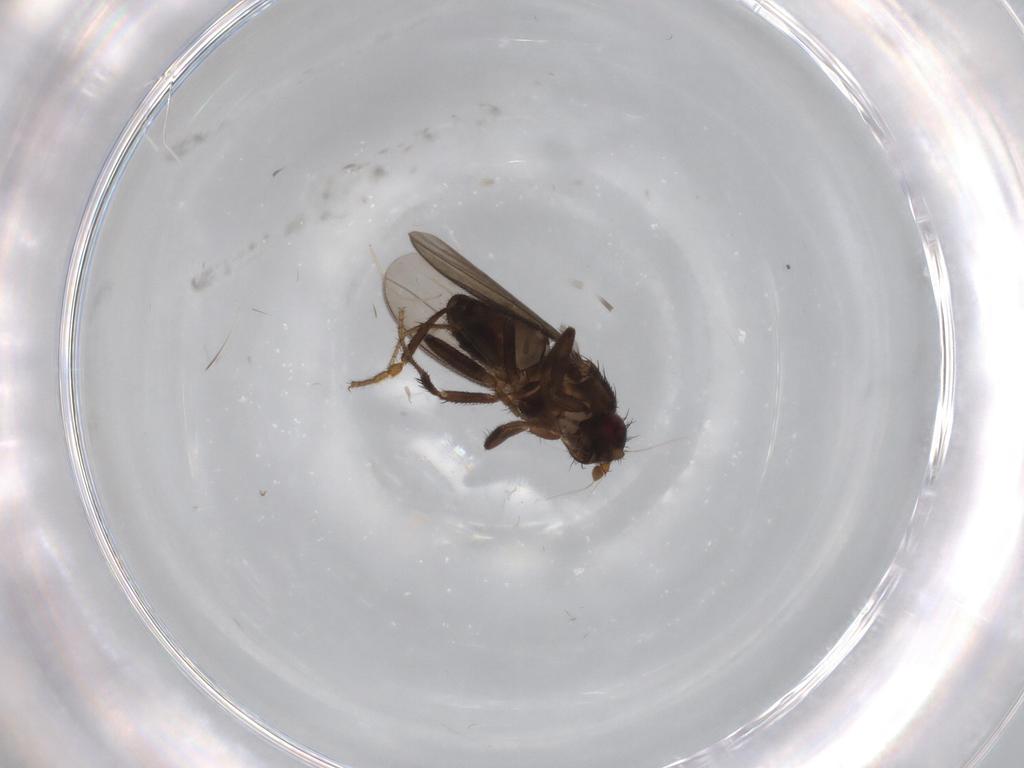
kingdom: Animalia
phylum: Arthropoda
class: Insecta
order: Diptera
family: Sphaeroceridae
